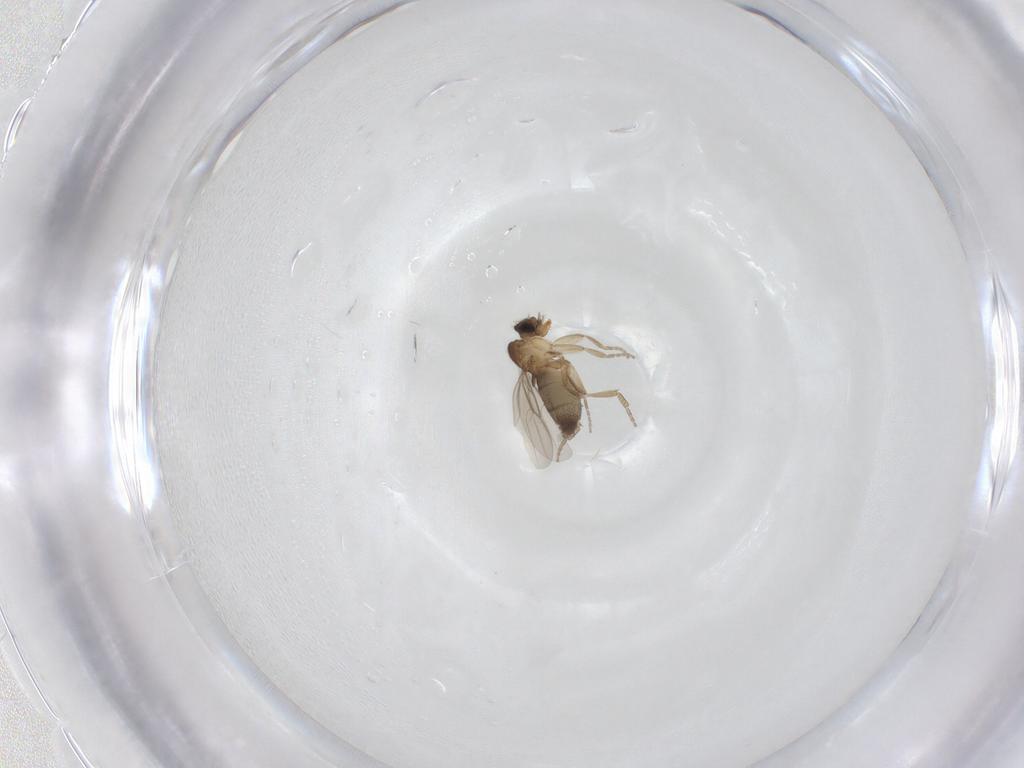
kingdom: Animalia
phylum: Arthropoda
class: Insecta
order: Diptera
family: Phoridae
